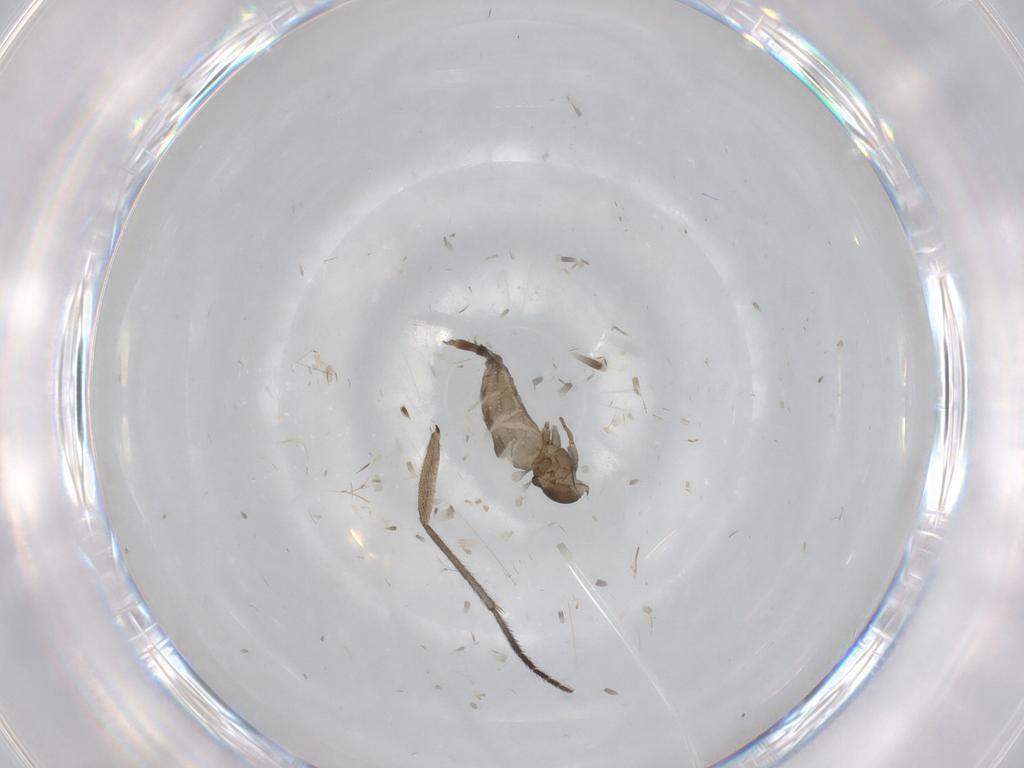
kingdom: Animalia
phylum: Arthropoda
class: Insecta
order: Diptera
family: Cecidomyiidae
